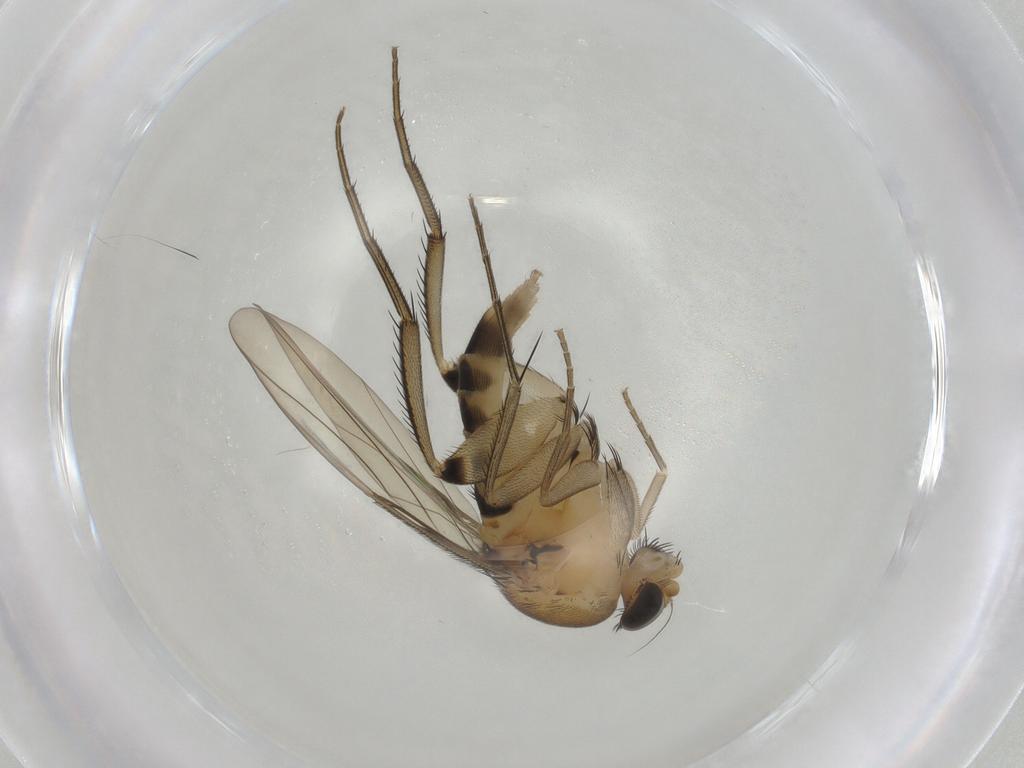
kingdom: Animalia
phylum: Arthropoda
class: Insecta
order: Diptera
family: Phoridae
